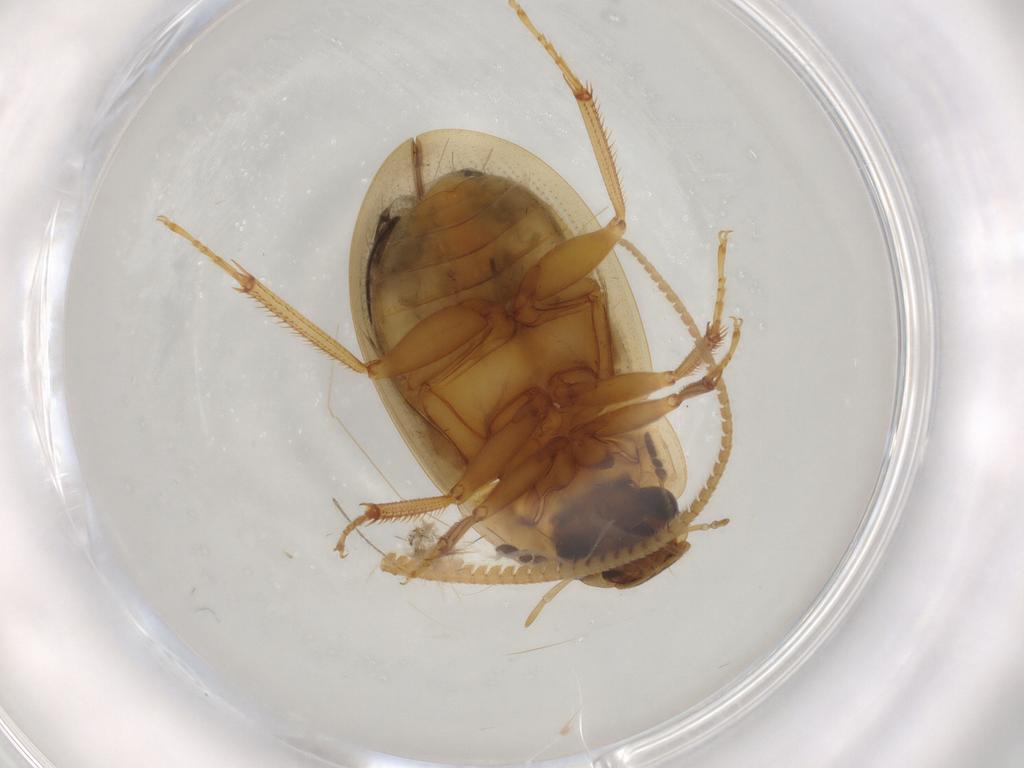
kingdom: Animalia
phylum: Arthropoda
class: Insecta
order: Coleoptera
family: Hydrophilidae
